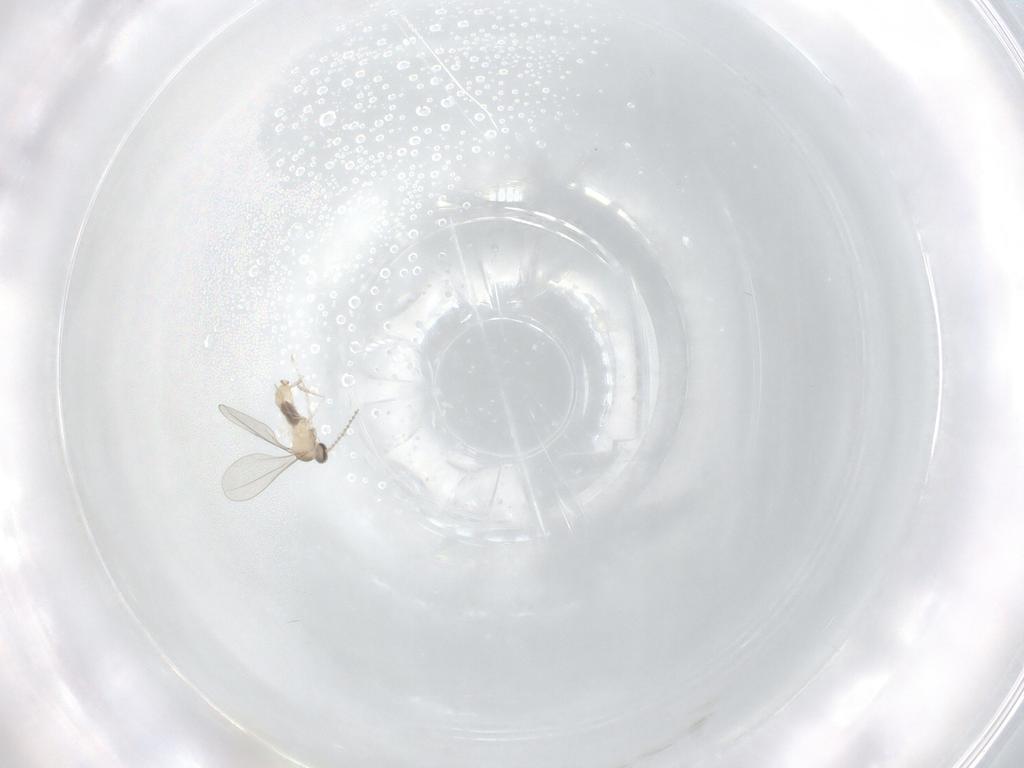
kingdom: Animalia
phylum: Arthropoda
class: Insecta
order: Diptera
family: Cecidomyiidae
